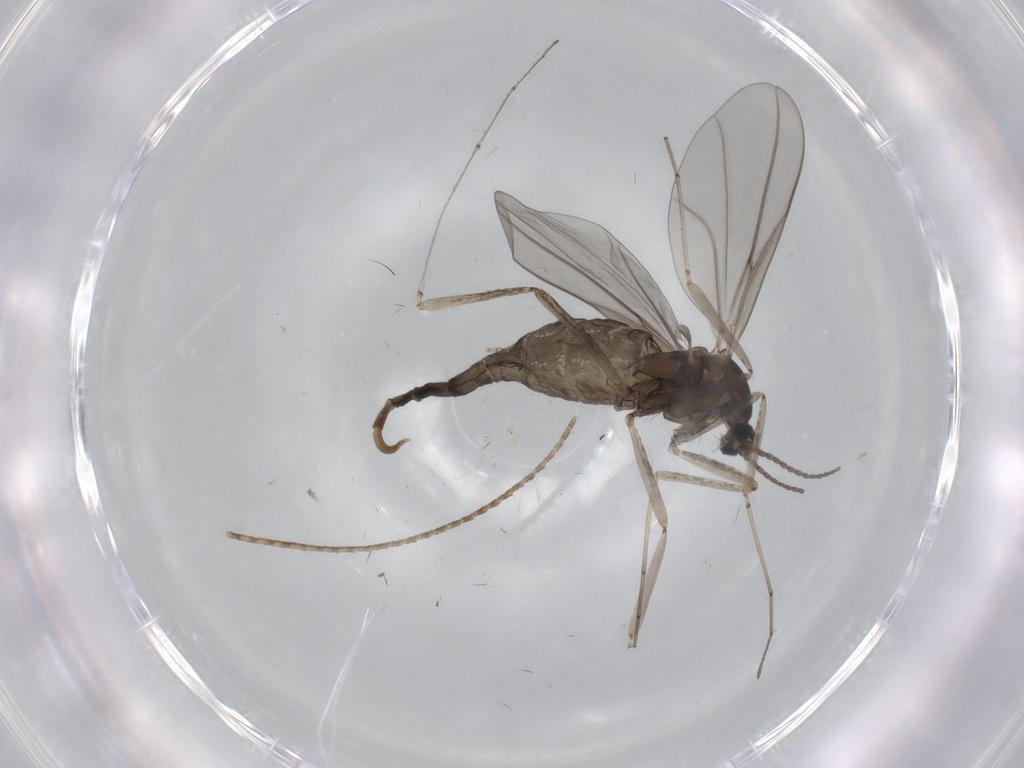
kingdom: Animalia
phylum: Arthropoda
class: Insecta
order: Diptera
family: Cecidomyiidae
